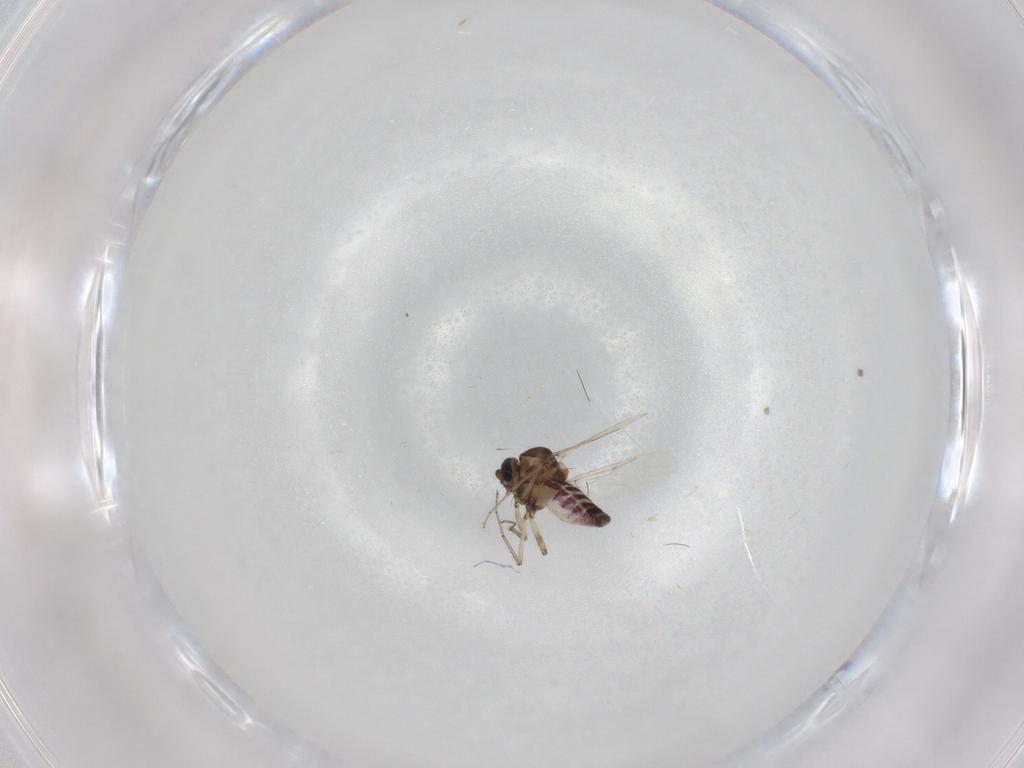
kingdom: Animalia
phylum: Arthropoda
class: Insecta
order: Diptera
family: Ceratopogonidae
